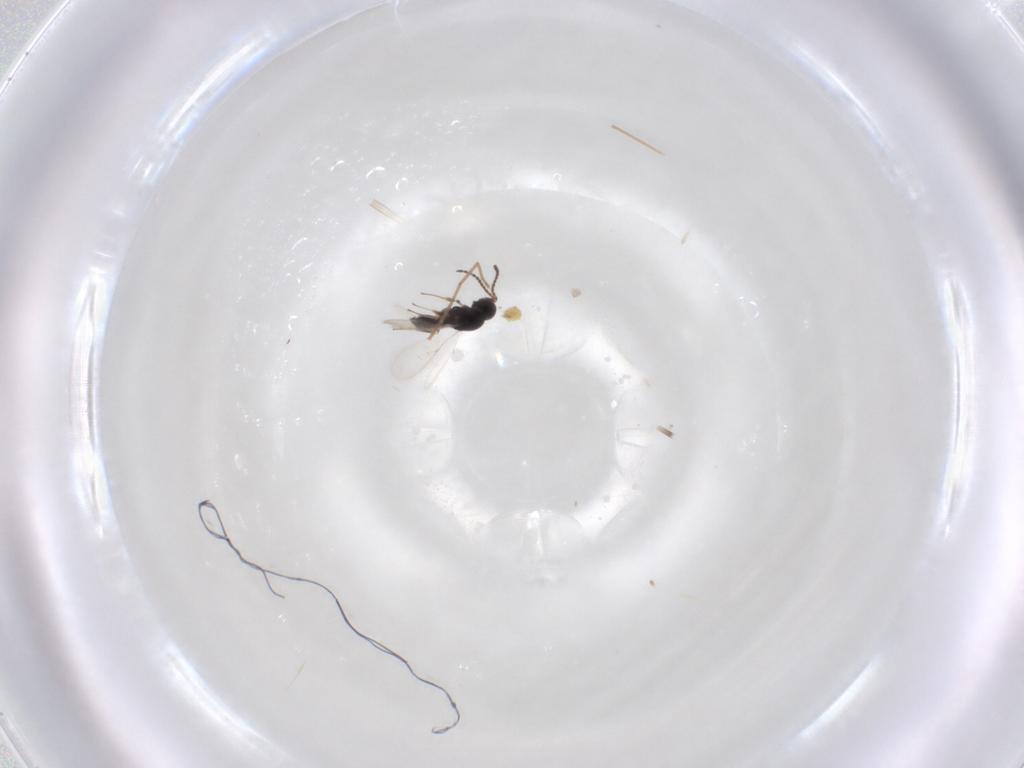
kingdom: Animalia
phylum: Arthropoda
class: Insecta
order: Hymenoptera
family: Scelionidae
